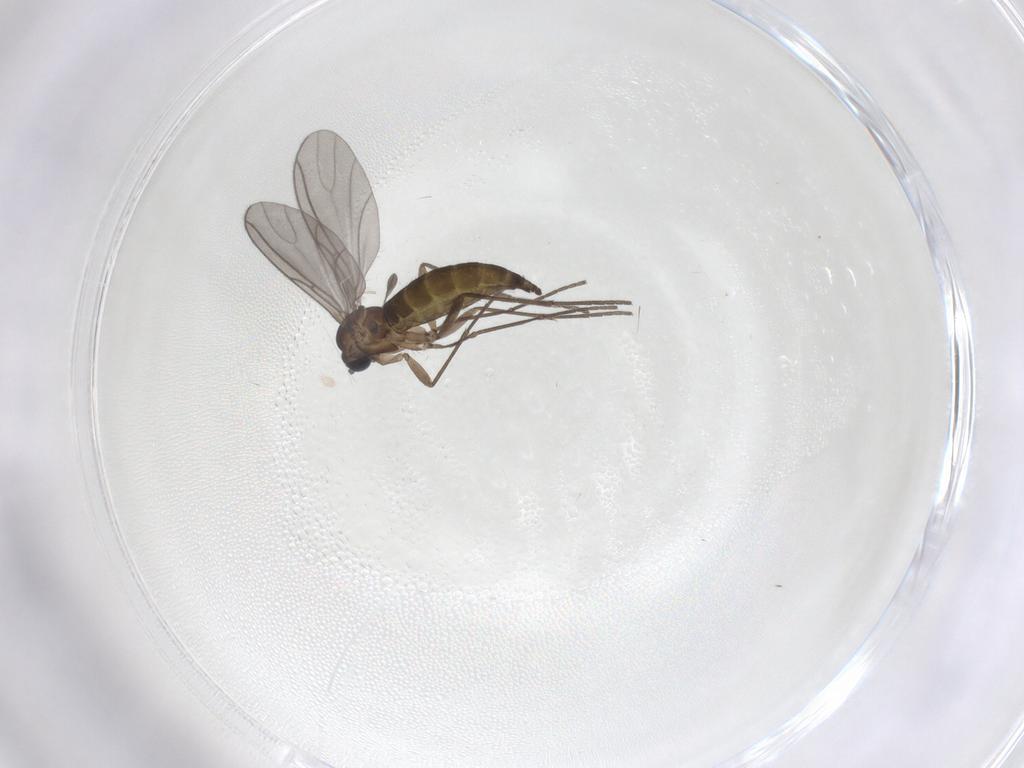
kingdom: Animalia
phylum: Arthropoda
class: Insecta
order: Diptera
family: Sciaridae
